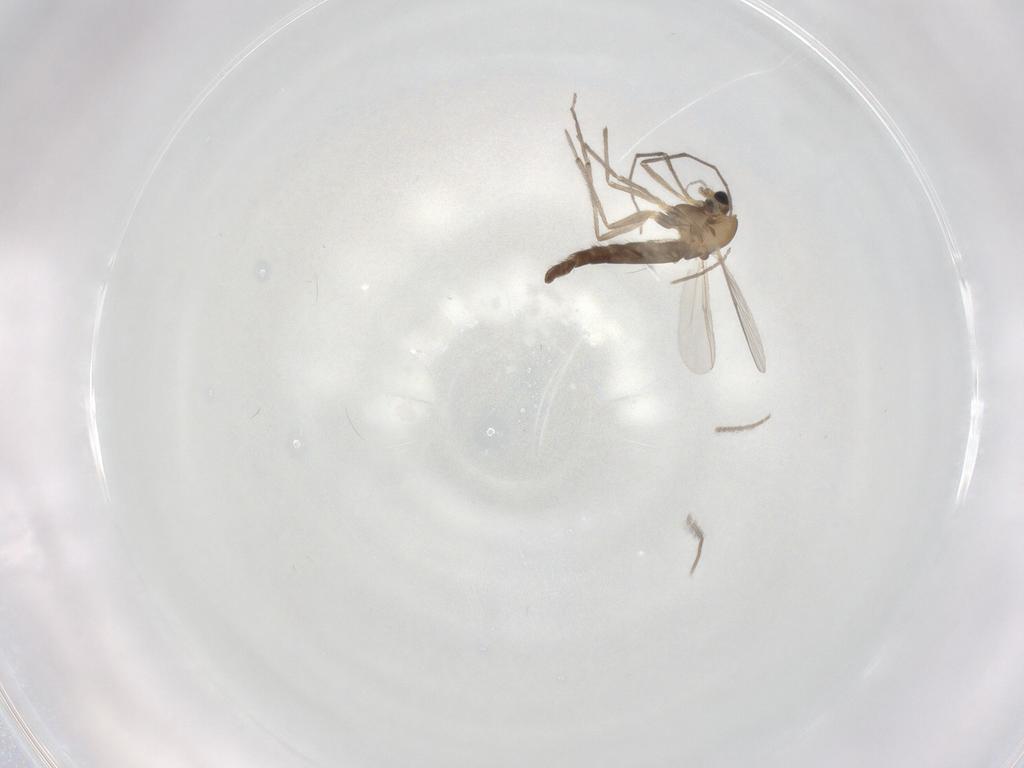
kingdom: Animalia
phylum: Arthropoda
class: Insecta
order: Diptera
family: Chironomidae
